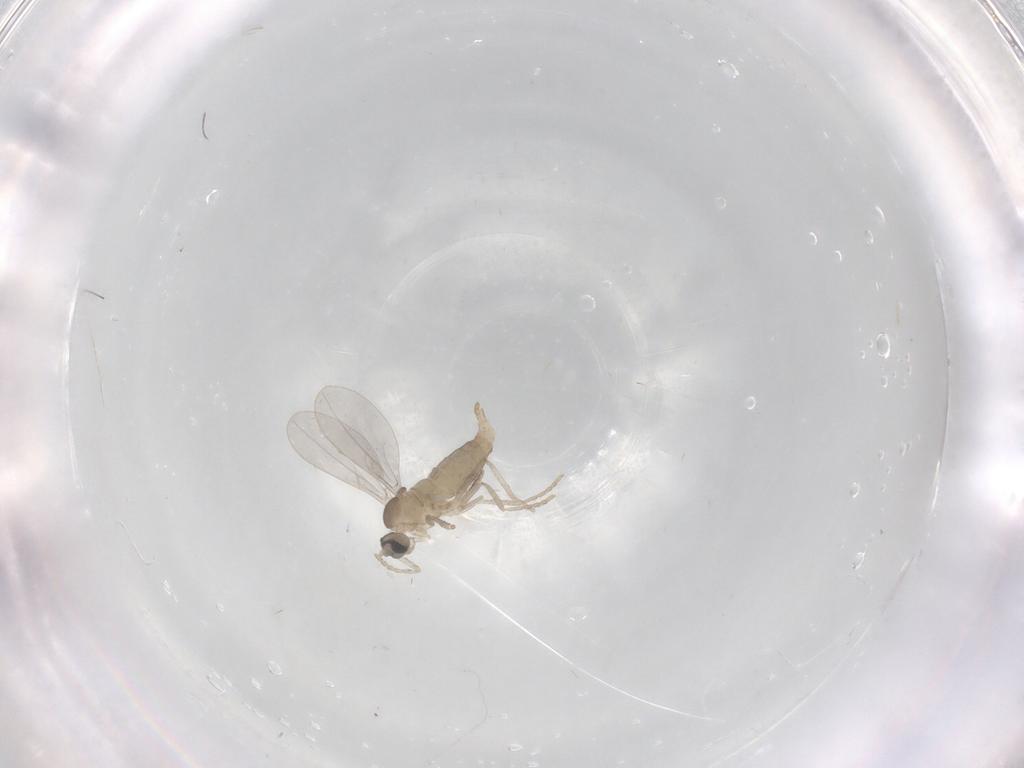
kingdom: Animalia
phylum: Arthropoda
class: Insecta
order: Diptera
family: Cecidomyiidae
